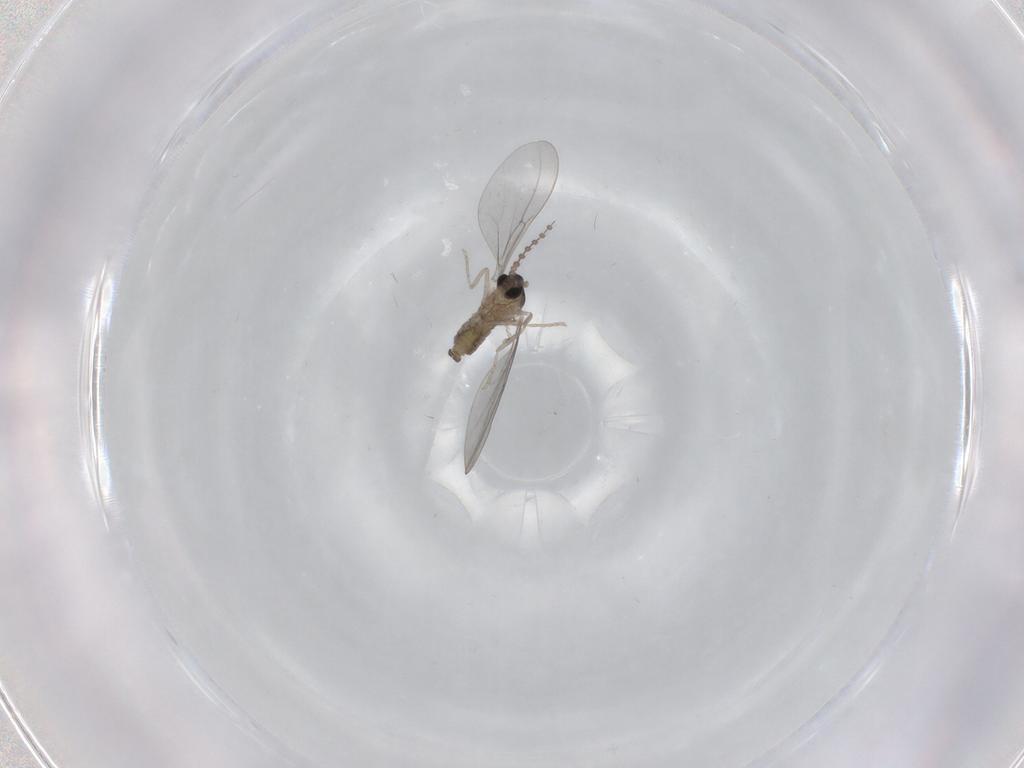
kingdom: Animalia
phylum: Arthropoda
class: Insecta
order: Diptera
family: Cecidomyiidae
